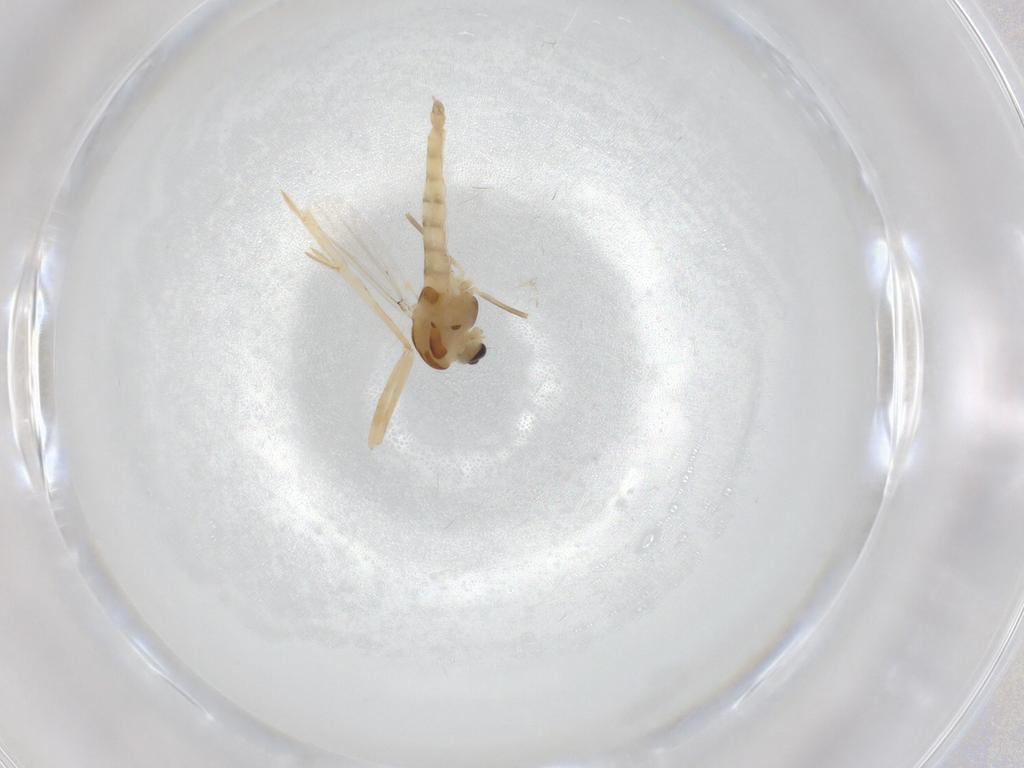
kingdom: Animalia
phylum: Arthropoda
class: Insecta
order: Diptera
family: Chironomidae
